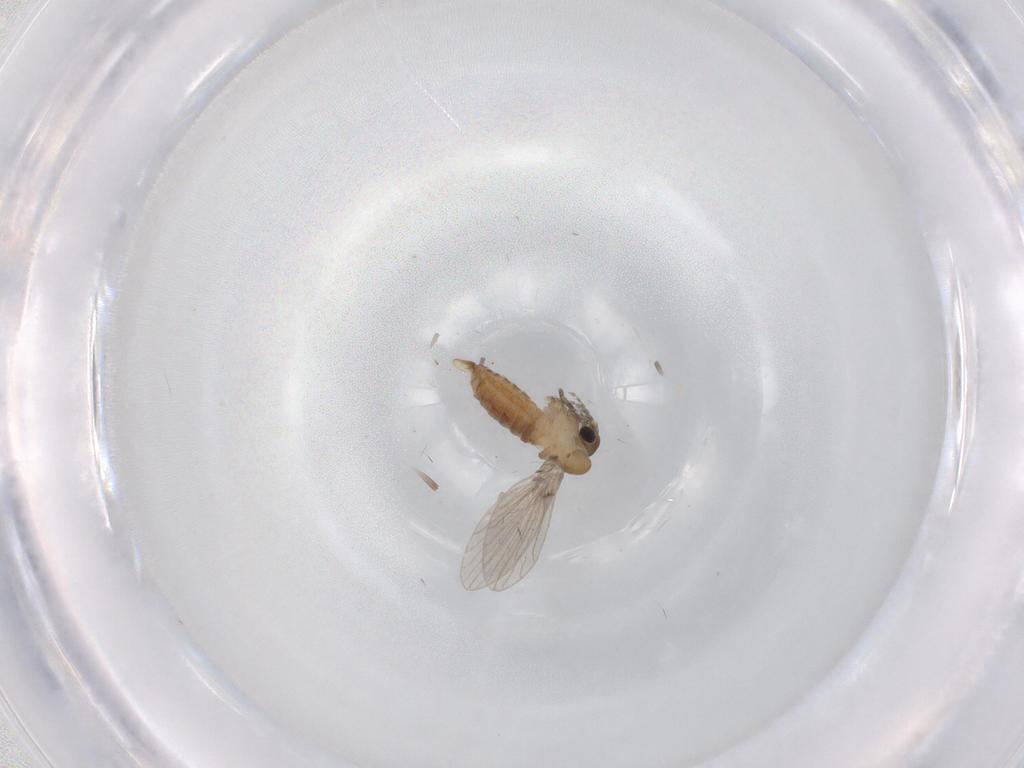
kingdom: Animalia
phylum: Arthropoda
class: Insecta
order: Diptera
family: Psychodidae
